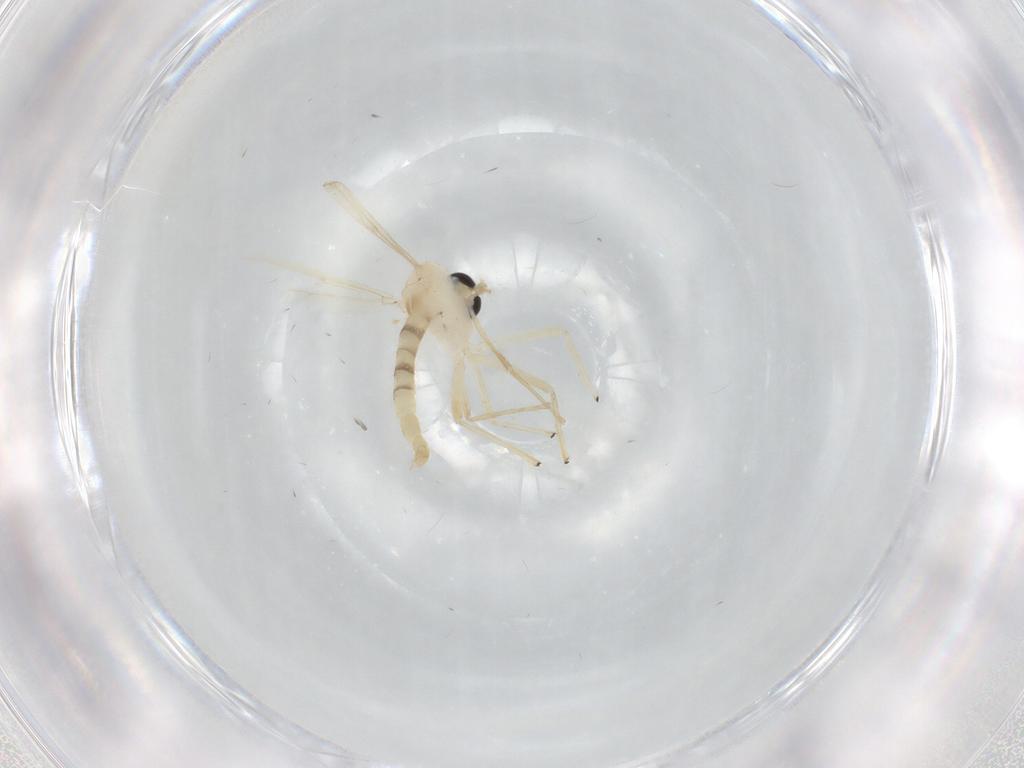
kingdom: Animalia
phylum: Arthropoda
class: Insecta
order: Diptera
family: Chironomidae
